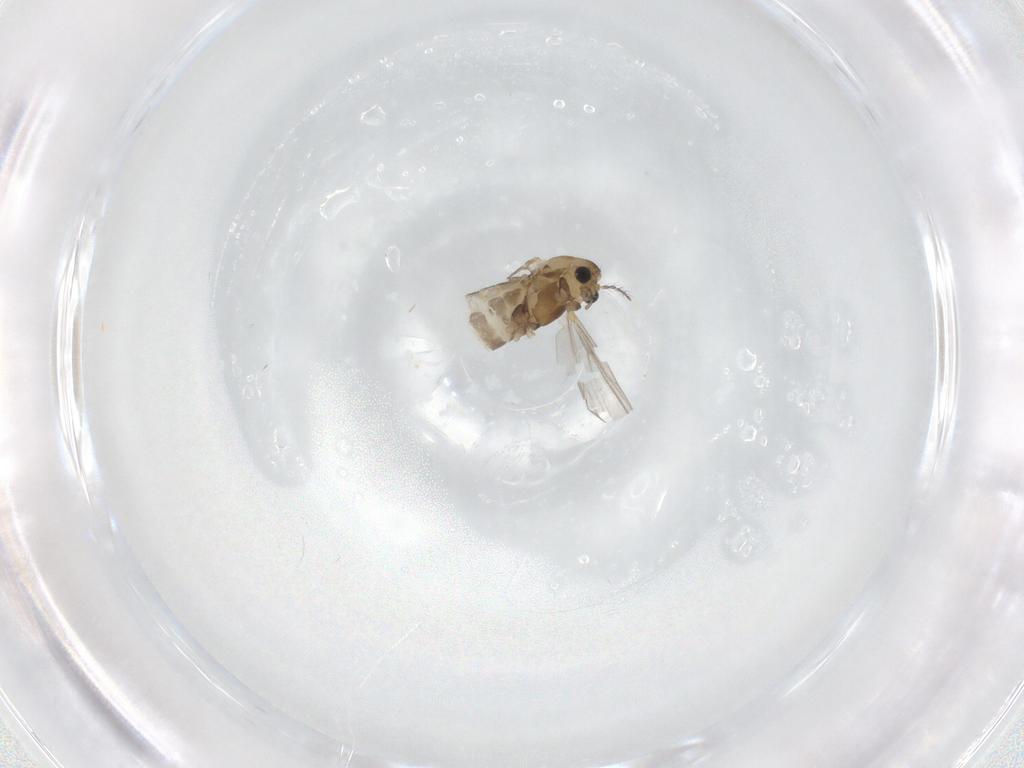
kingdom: Animalia
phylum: Arthropoda
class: Insecta
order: Diptera
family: Chironomidae
